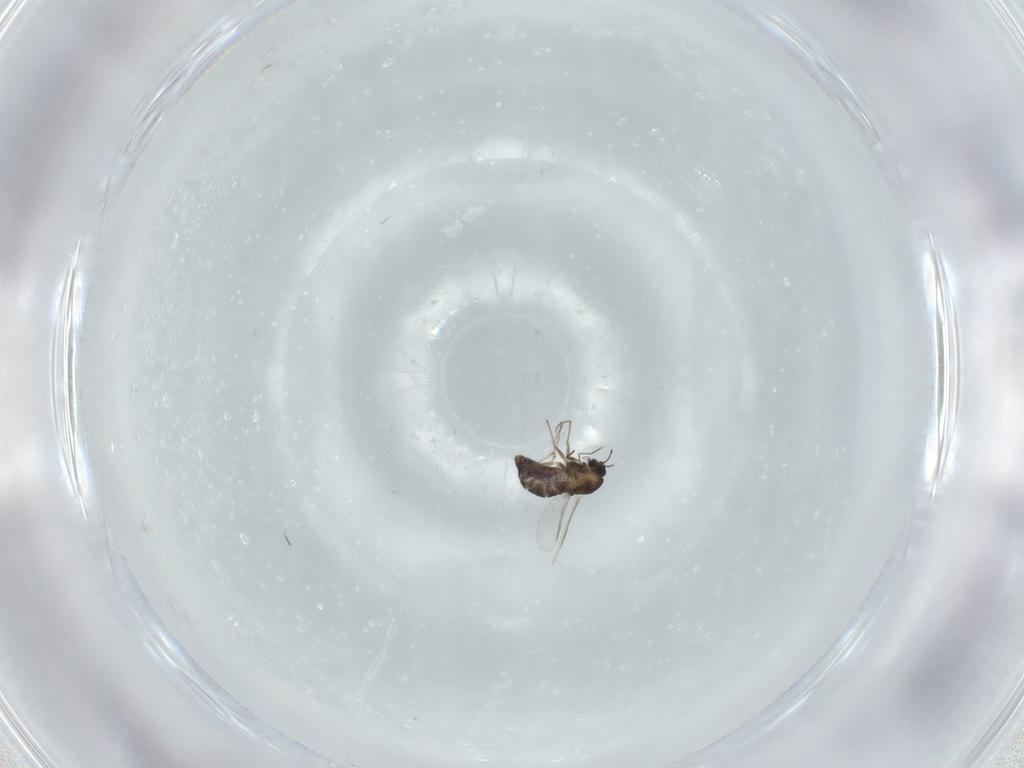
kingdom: Animalia
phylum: Arthropoda
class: Insecta
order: Diptera
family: Chironomidae
